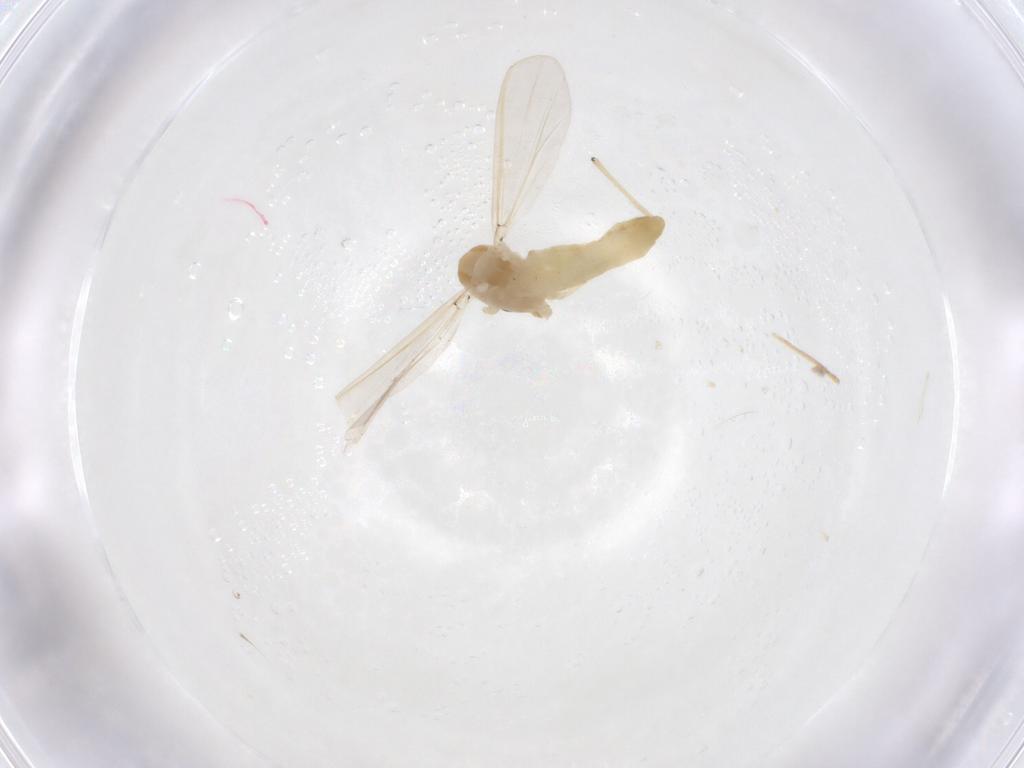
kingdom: Animalia
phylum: Arthropoda
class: Insecta
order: Diptera
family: Chironomidae
